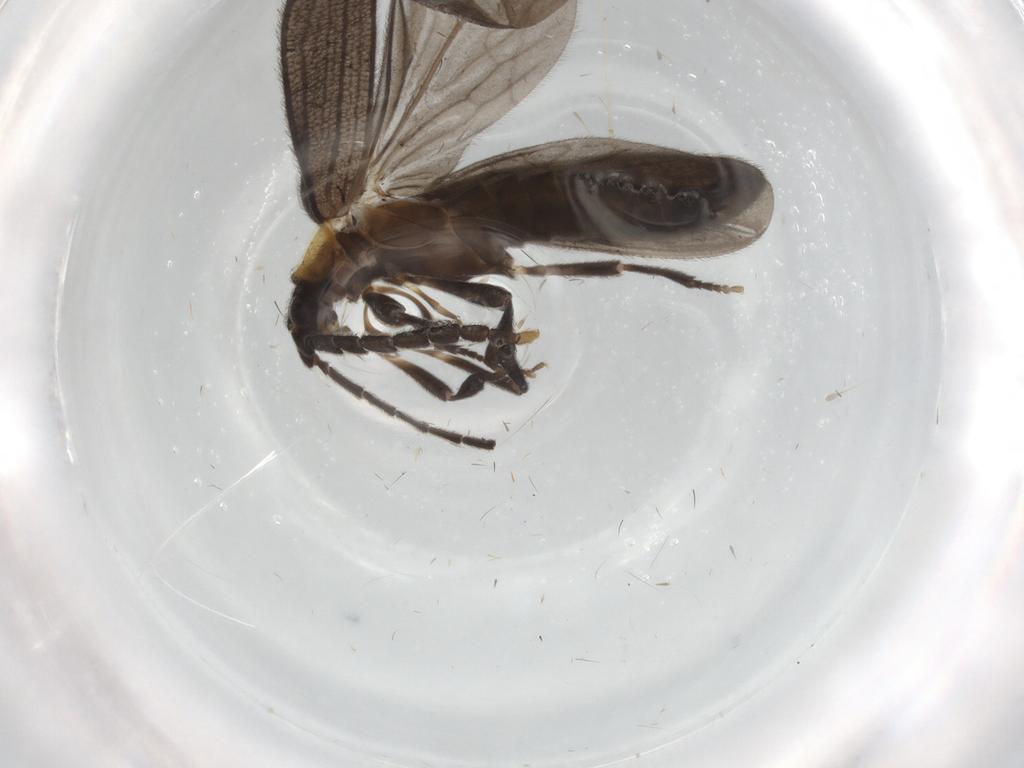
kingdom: Animalia
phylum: Arthropoda
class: Insecta
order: Coleoptera
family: Lycidae
